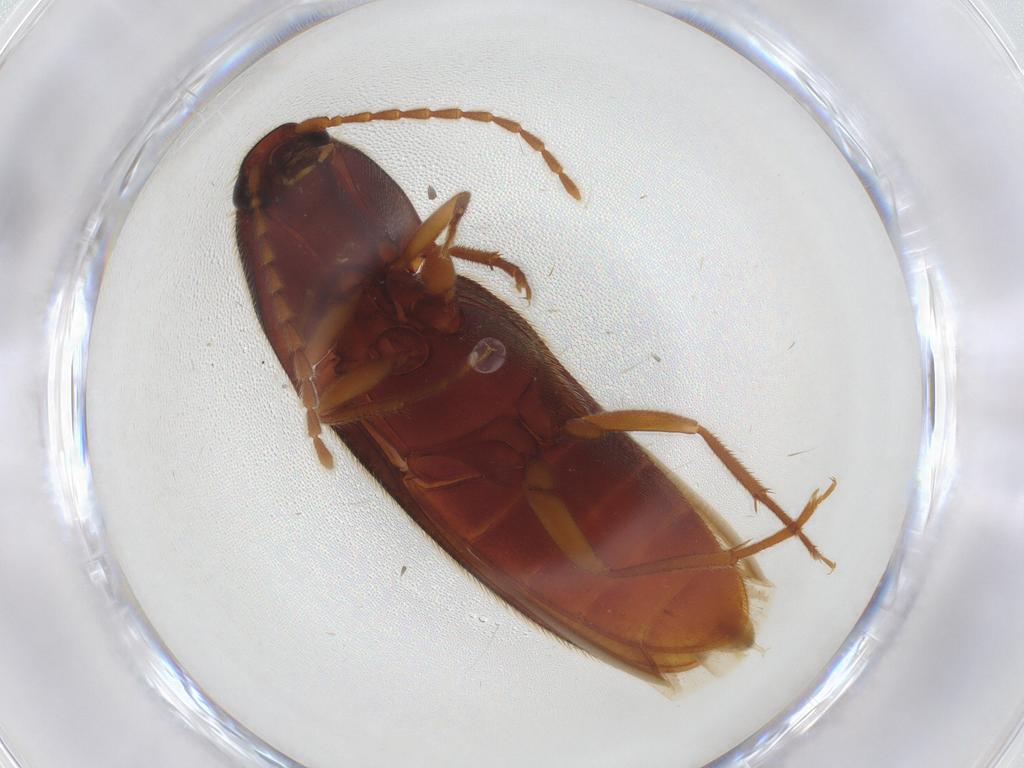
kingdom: Animalia
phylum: Arthropoda
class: Insecta
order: Coleoptera
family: Elateridae
